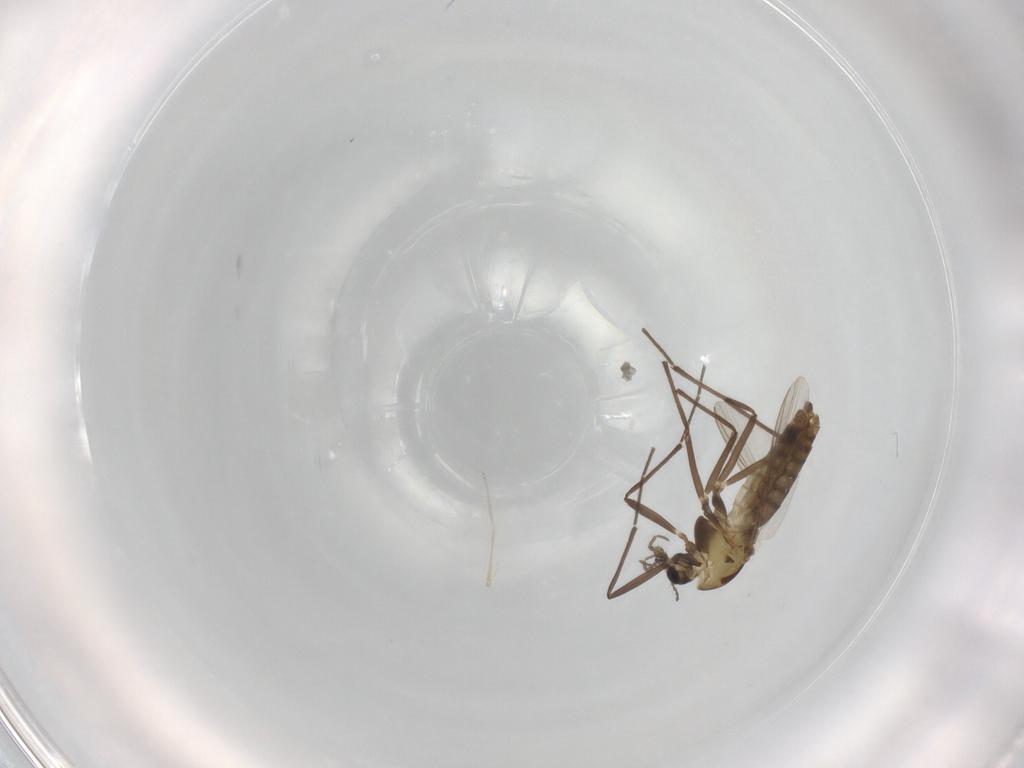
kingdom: Animalia
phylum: Arthropoda
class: Insecta
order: Diptera
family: Chironomidae
